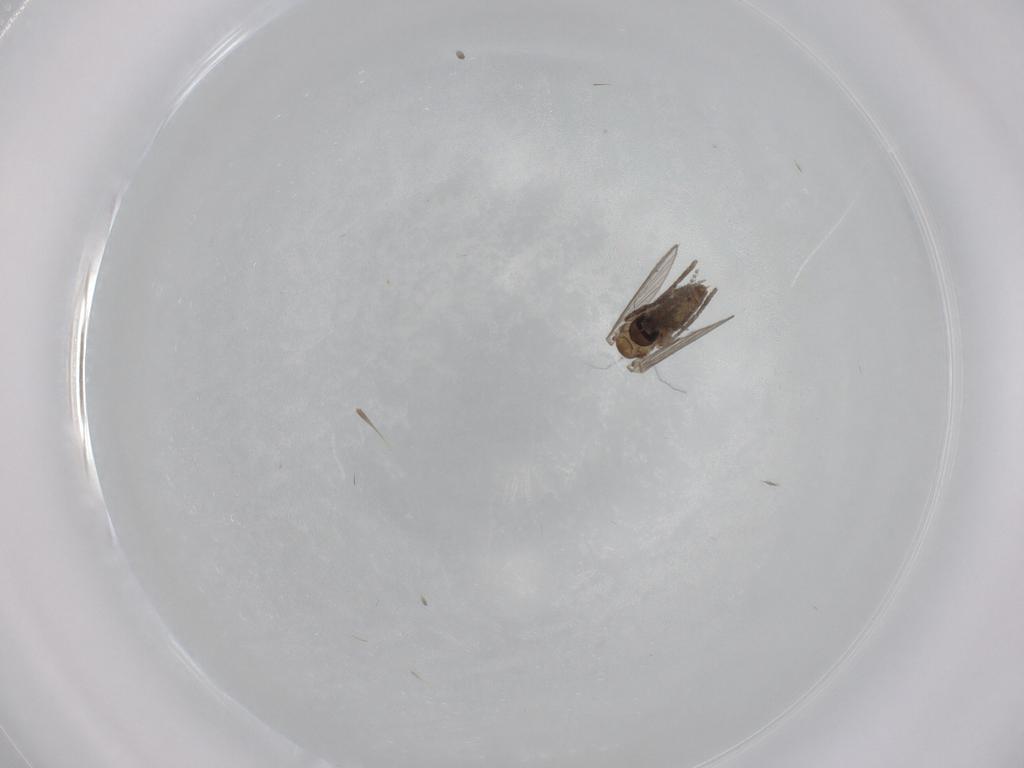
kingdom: Animalia
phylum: Arthropoda
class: Insecta
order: Diptera
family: Psychodidae
